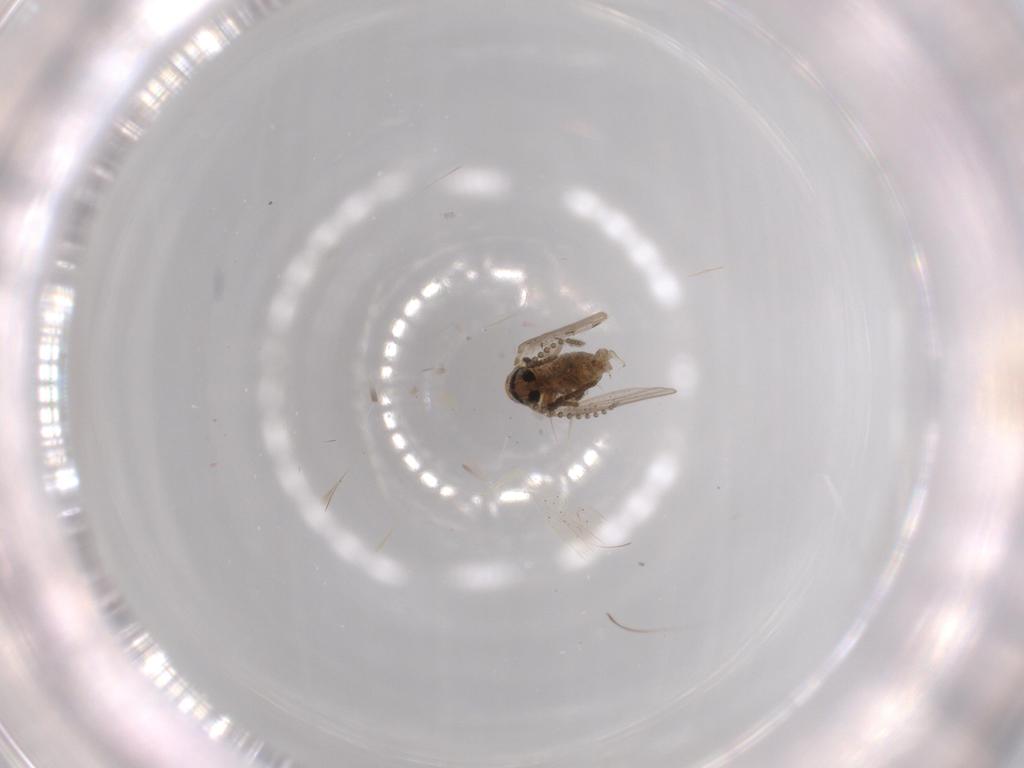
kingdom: Animalia
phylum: Arthropoda
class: Insecta
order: Diptera
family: Psychodidae
